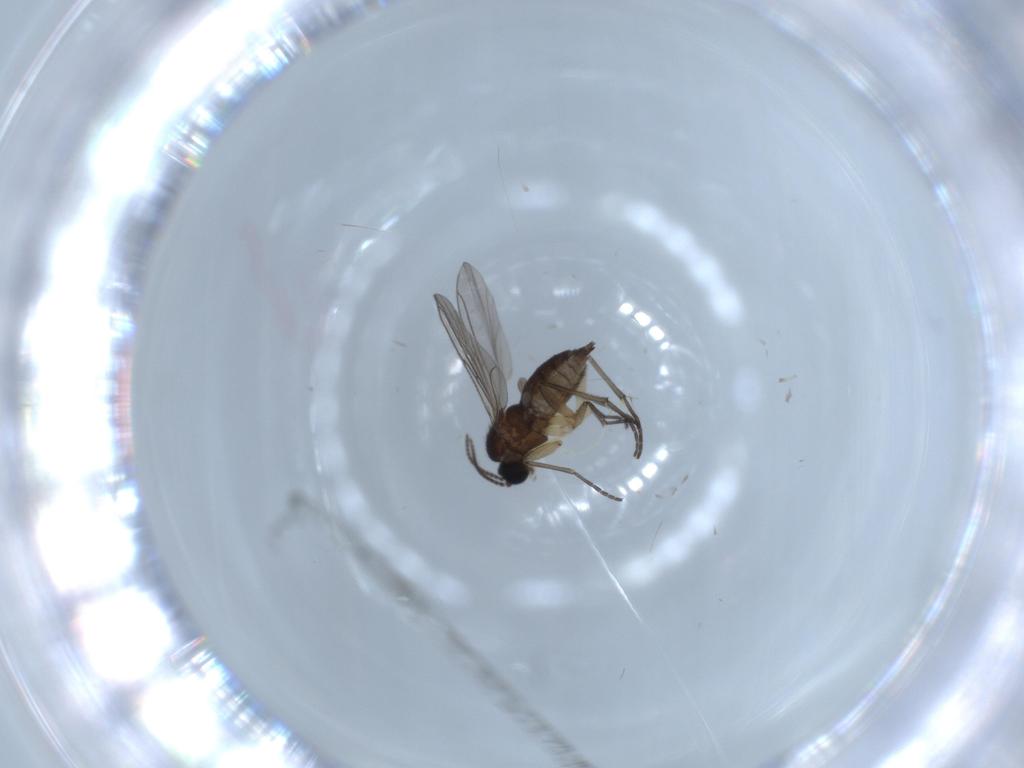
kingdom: Animalia
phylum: Arthropoda
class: Insecta
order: Diptera
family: Sciaridae
